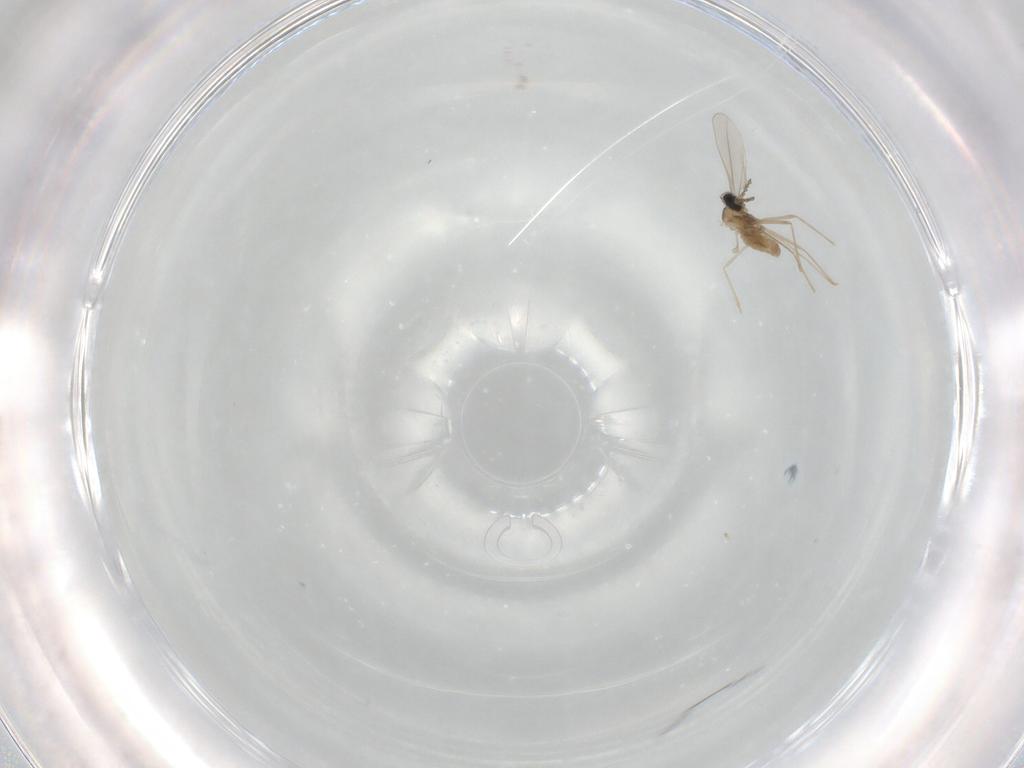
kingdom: Animalia
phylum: Arthropoda
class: Insecta
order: Diptera
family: Cecidomyiidae
